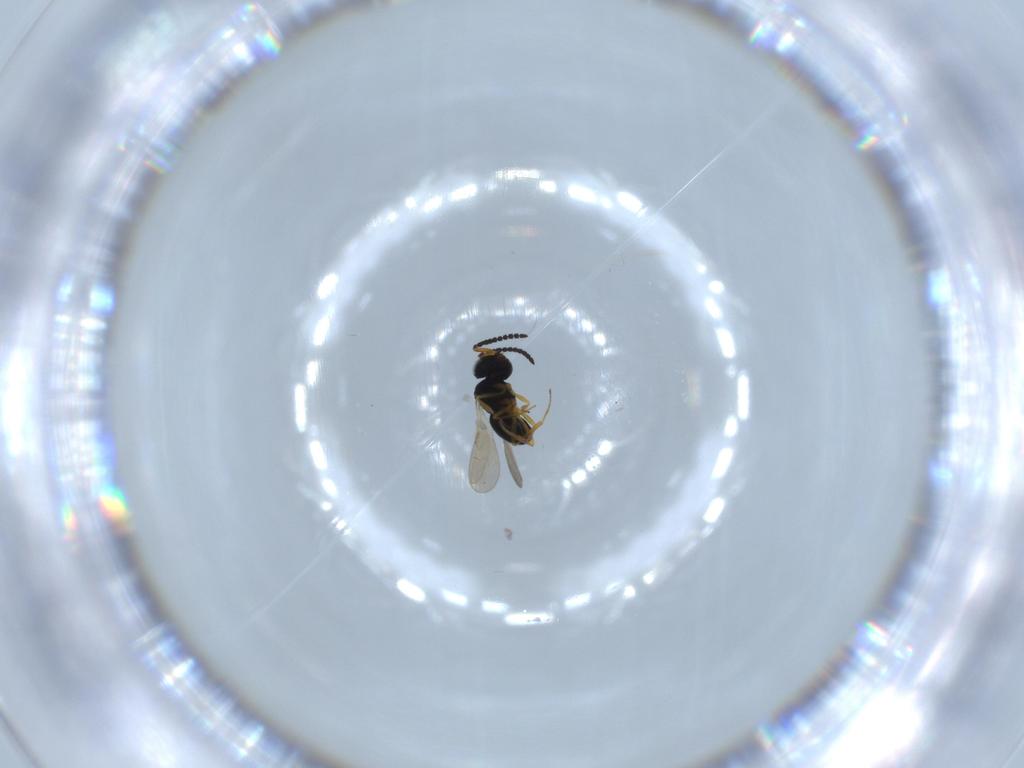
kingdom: Animalia
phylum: Arthropoda
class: Insecta
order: Hymenoptera
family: Scelionidae
